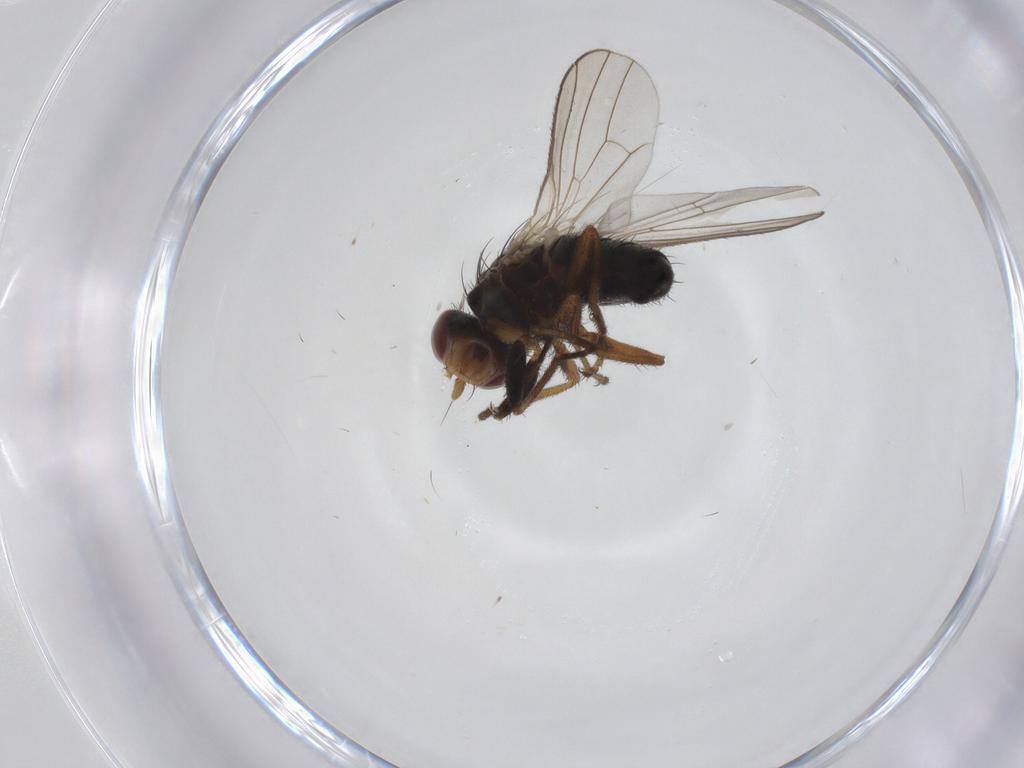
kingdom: Animalia
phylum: Arthropoda
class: Insecta
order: Diptera
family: Heleomyzidae
